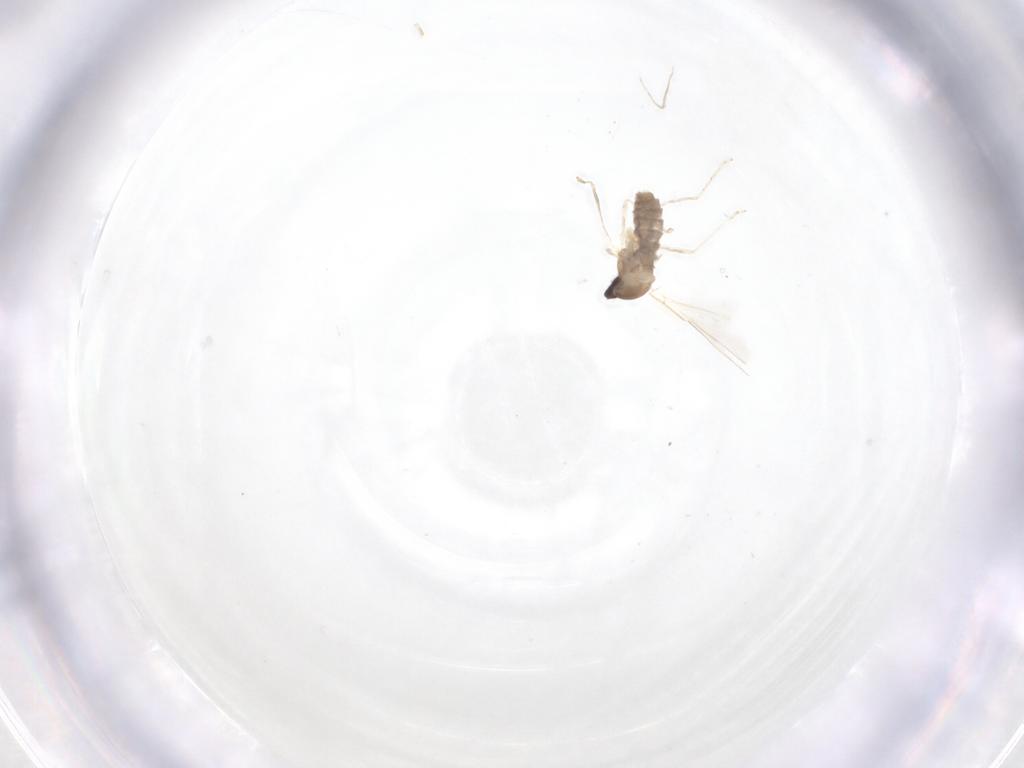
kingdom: Animalia
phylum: Arthropoda
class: Insecta
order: Diptera
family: Cecidomyiidae
